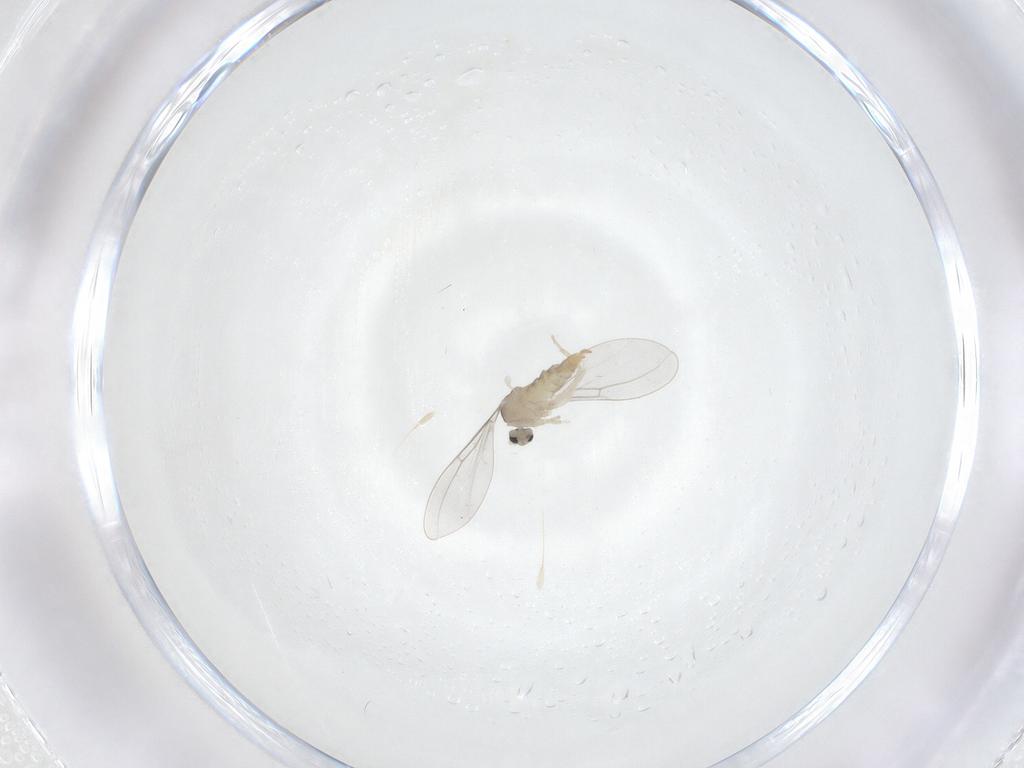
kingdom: Animalia
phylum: Arthropoda
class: Insecta
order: Diptera
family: Cecidomyiidae
